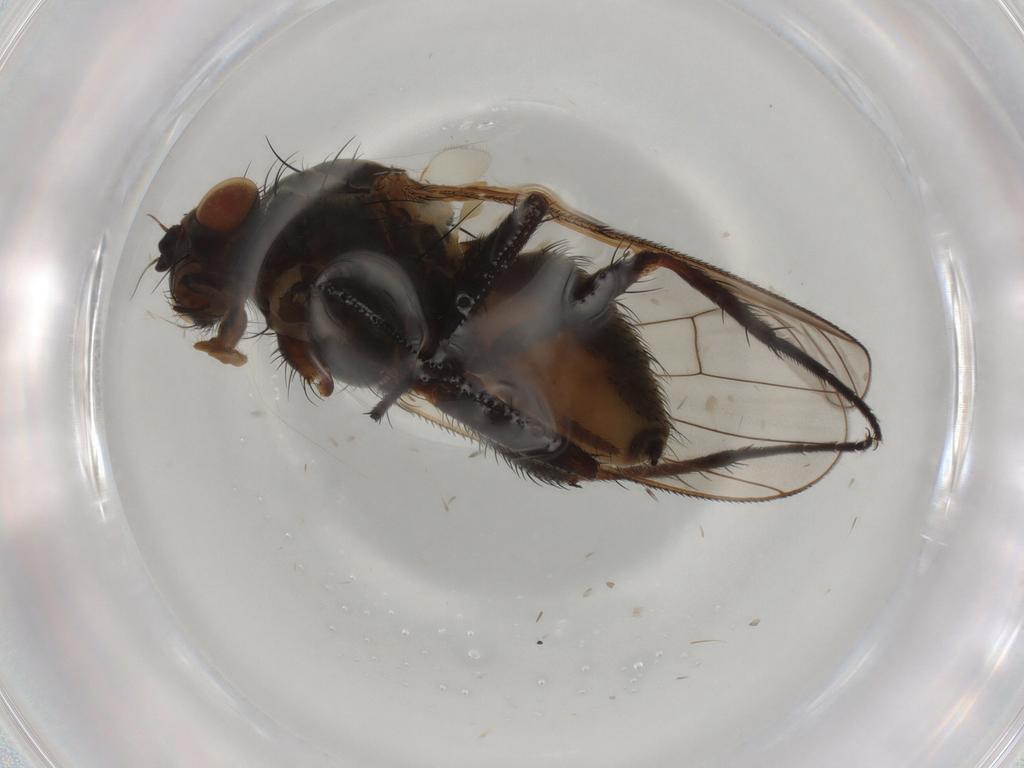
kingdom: Animalia
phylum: Arthropoda
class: Insecta
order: Diptera
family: Anthomyiidae
